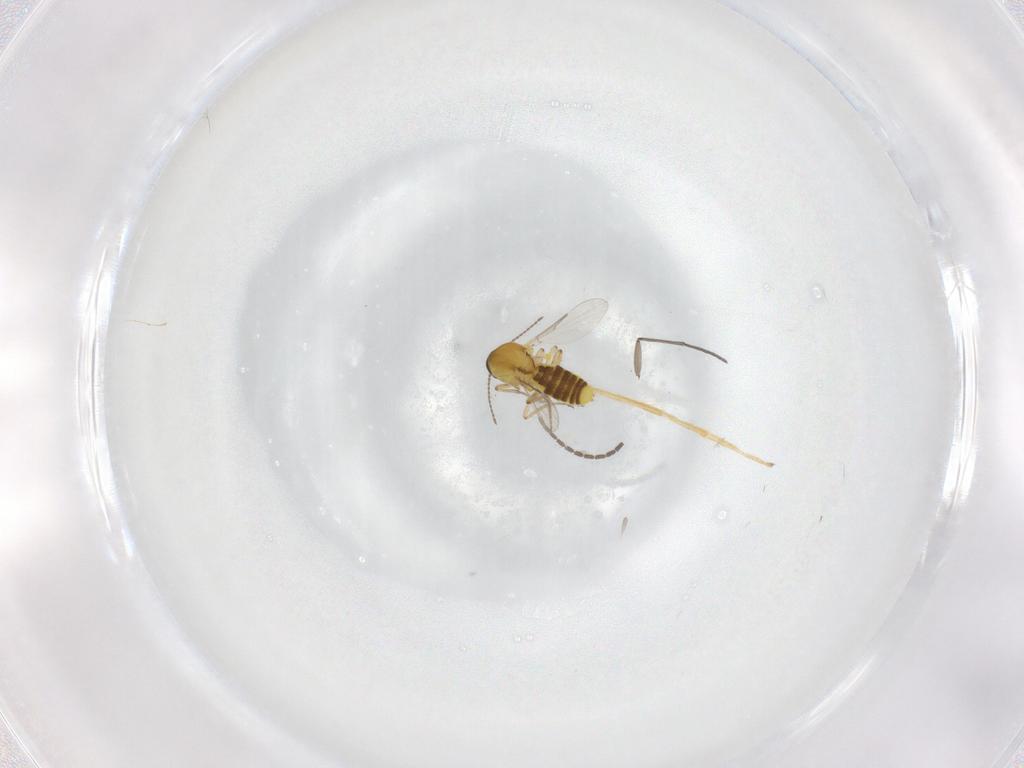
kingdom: Animalia
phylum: Arthropoda
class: Insecta
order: Diptera
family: Ceratopogonidae
